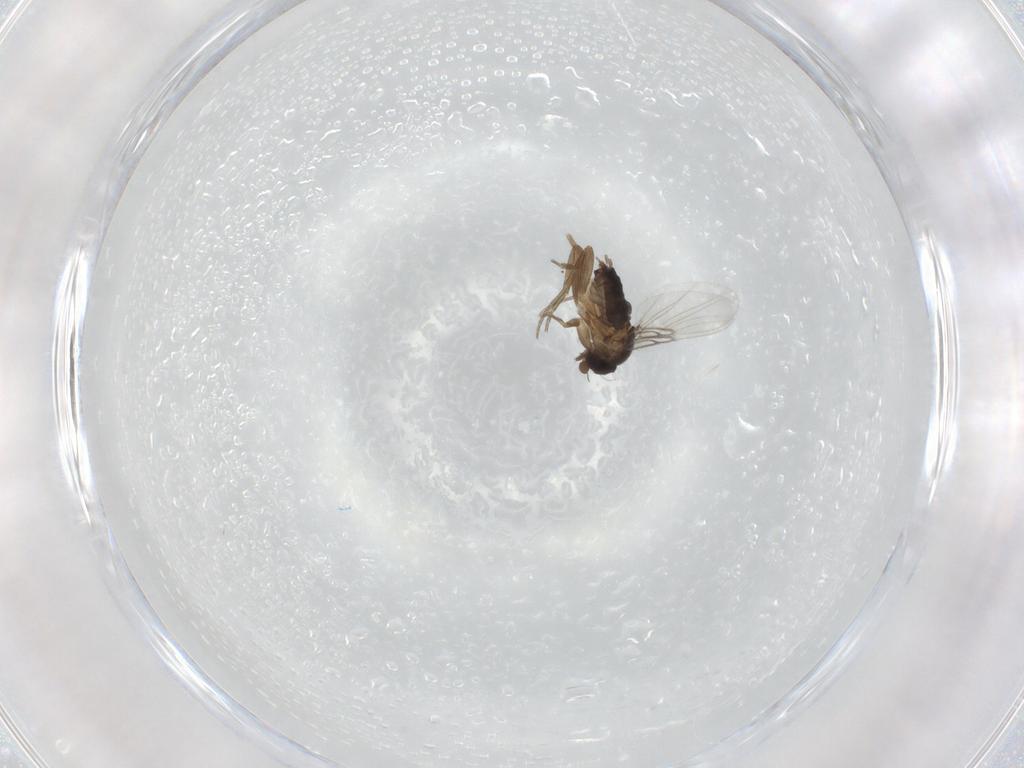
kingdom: Animalia
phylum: Arthropoda
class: Insecta
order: Diptera
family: Phoridae
